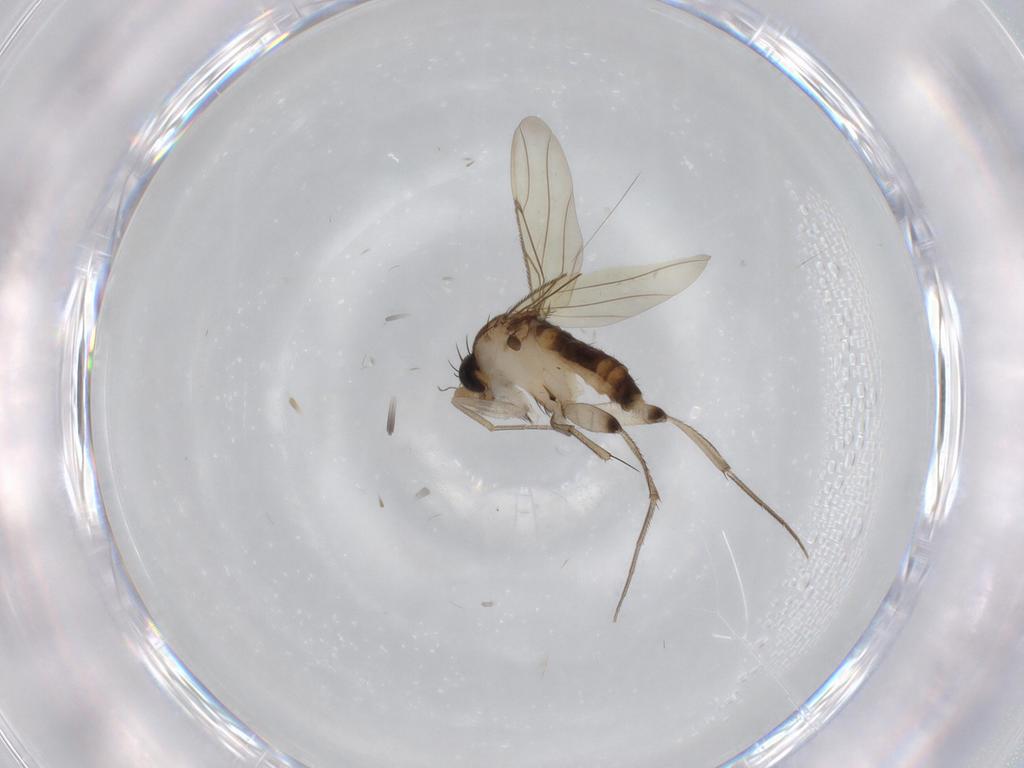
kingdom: Animalia
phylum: Arthropoda
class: Insecta
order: Diptera
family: Phoridae
